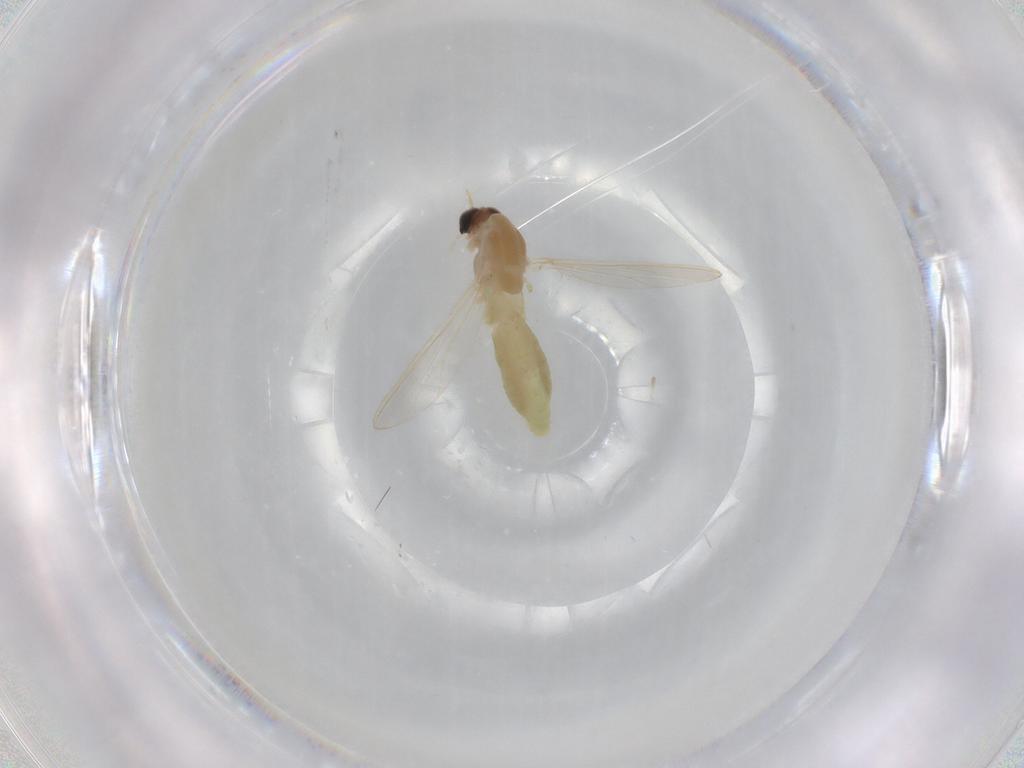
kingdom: Animalia
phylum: Arthropoda
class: Insecta
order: Diptera
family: Chironomidae
